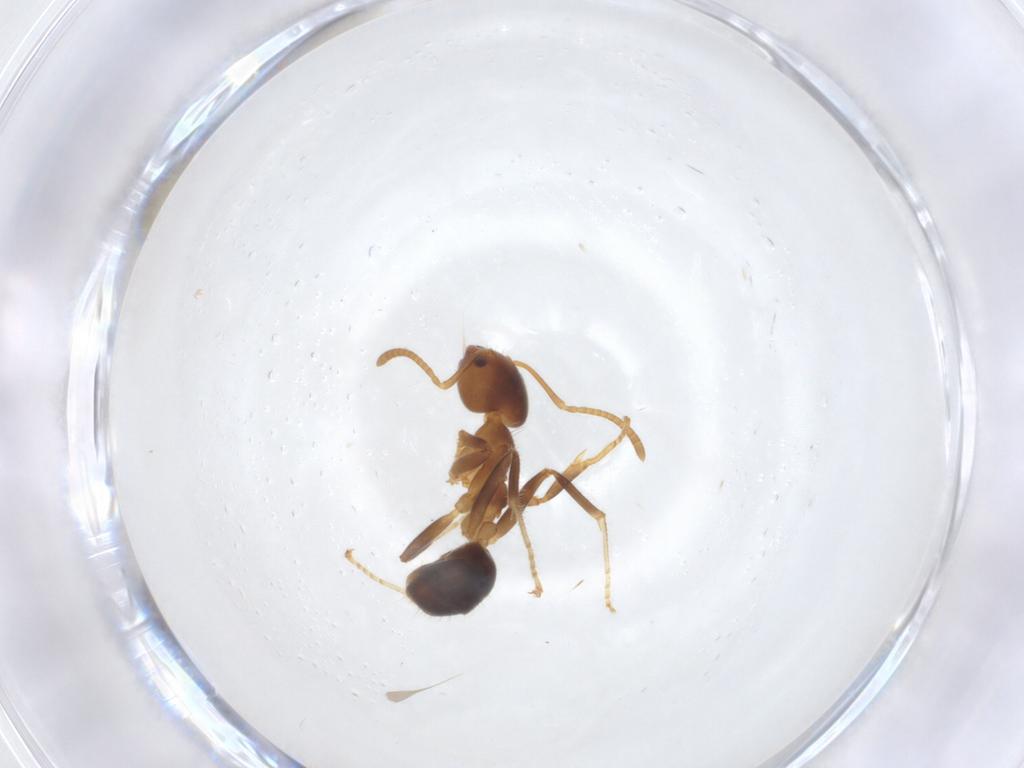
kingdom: Animalia
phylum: Arthropoda
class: Insecta
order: Hymenoptera
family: Formicidae
